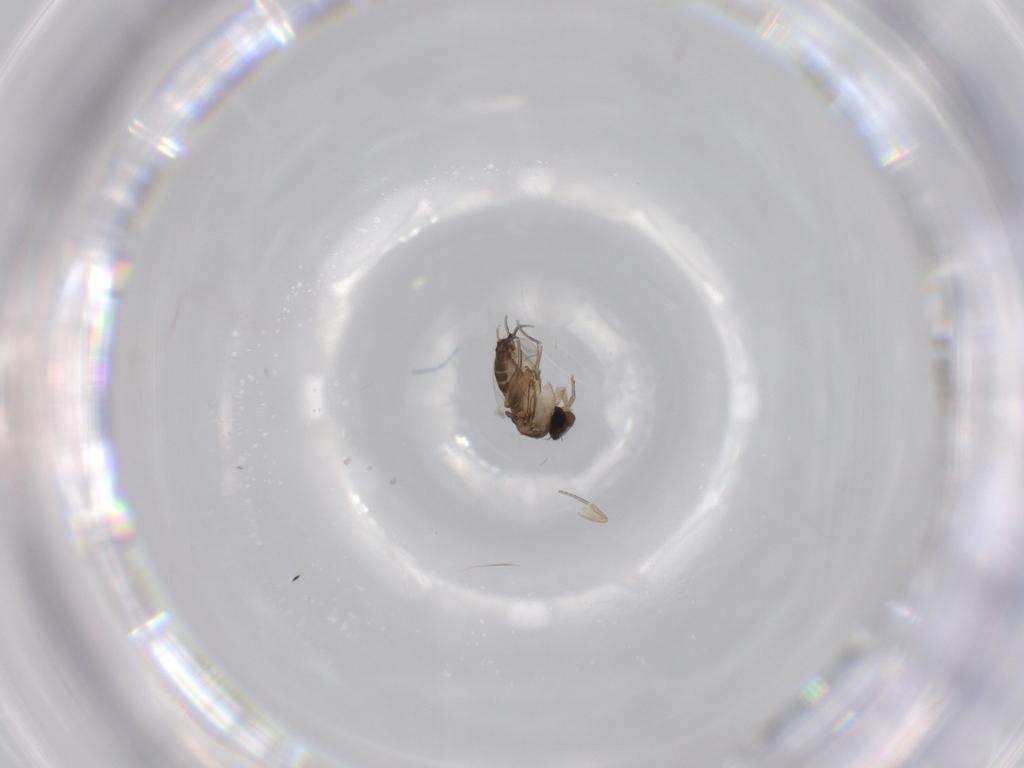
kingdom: Animalia
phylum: Arthropoda
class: Insecta
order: Diptera
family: Phoridae
